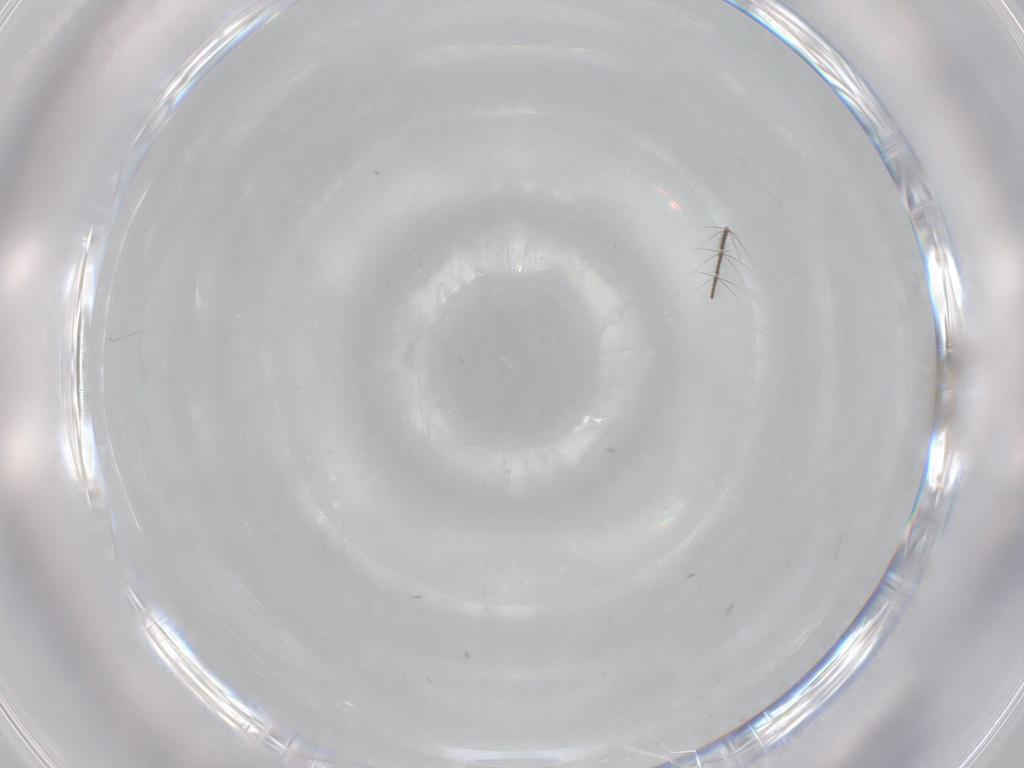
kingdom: Animalia
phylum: Arthropoda
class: Insecta
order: Diptera
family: Culicidae
